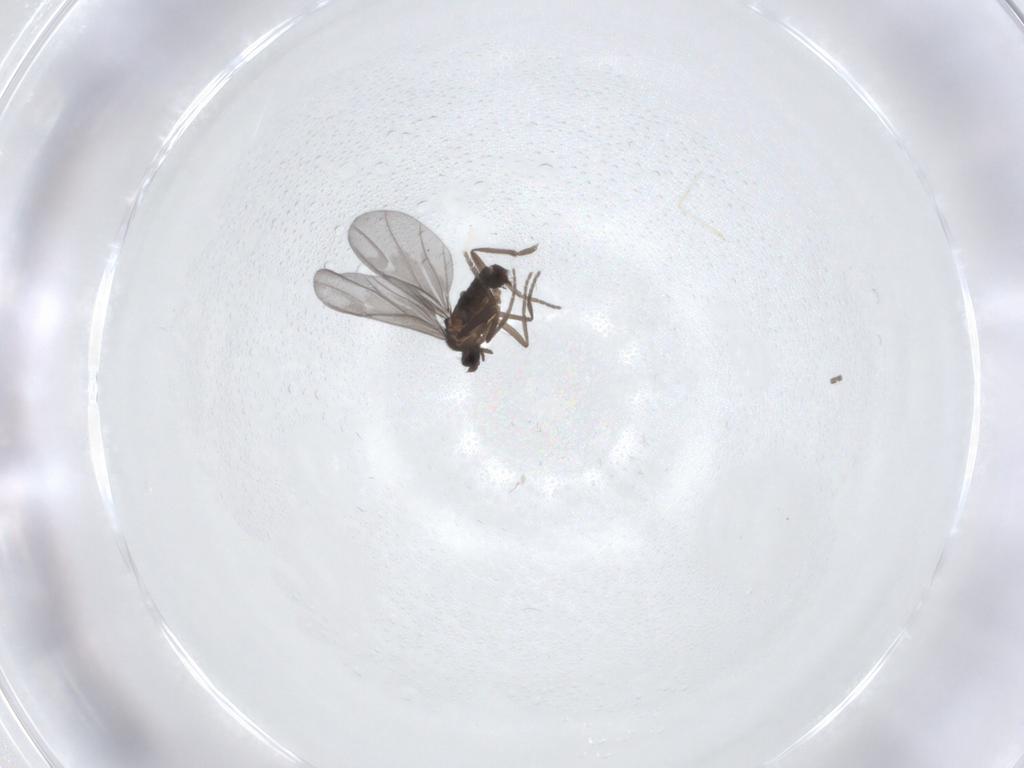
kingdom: Animalia
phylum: Arthropoda
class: Insecta
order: Diptera
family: Phoridae
